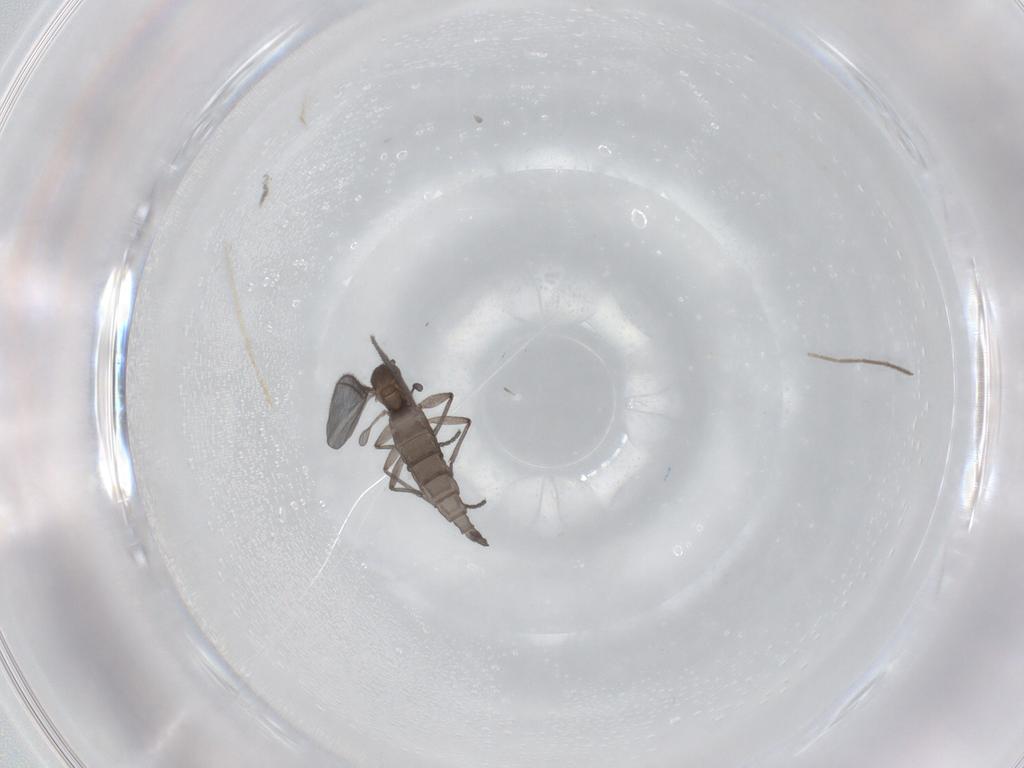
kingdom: Animalia
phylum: Arthropoda
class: Insecta
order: Diptera
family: Sciaridae
